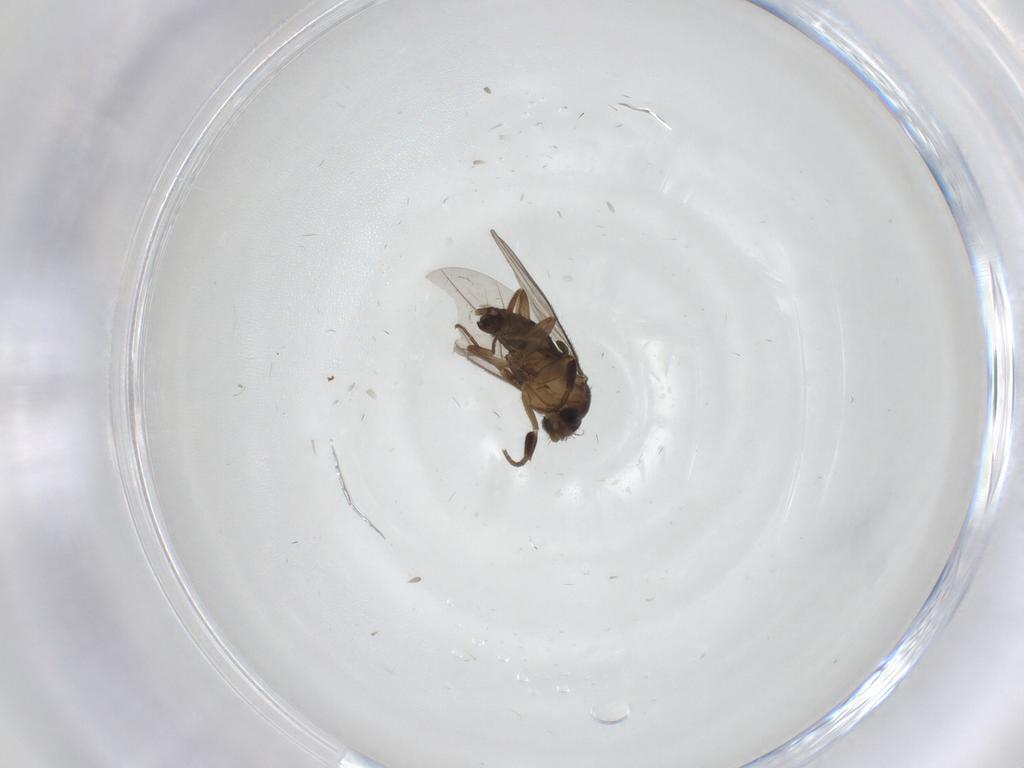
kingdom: Animalia
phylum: Arthropoda
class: Insecta
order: Diptera
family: Phoridae
